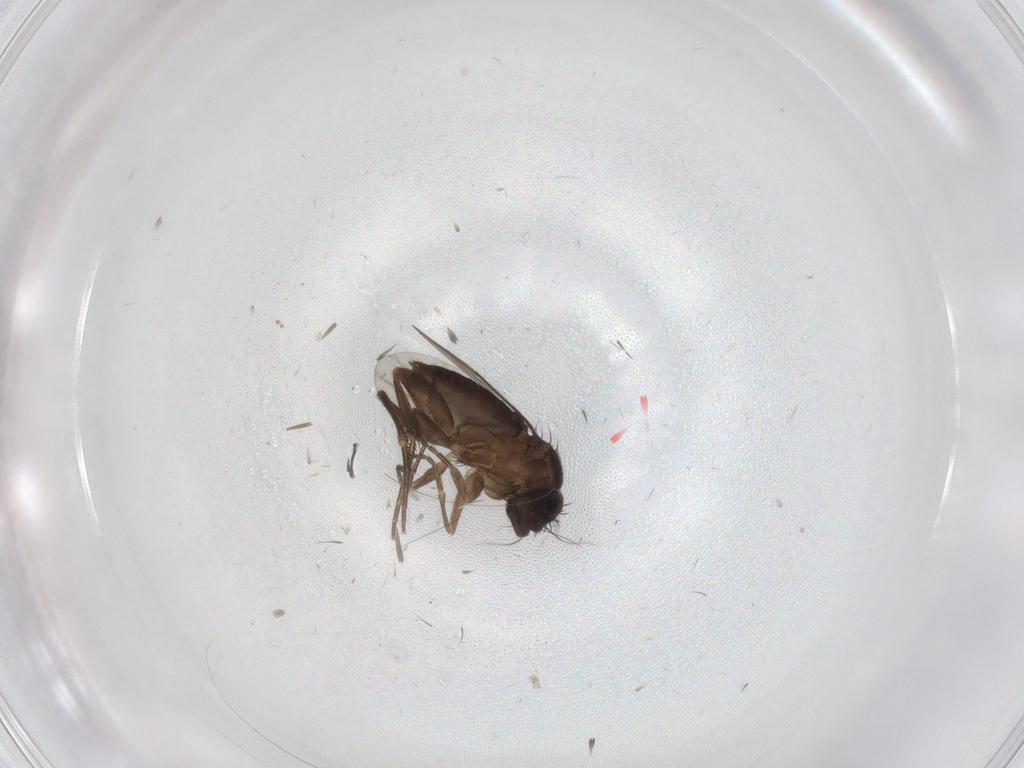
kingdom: Animalia
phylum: Arthropoda
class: Insecta
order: Diptera
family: Phoridae
